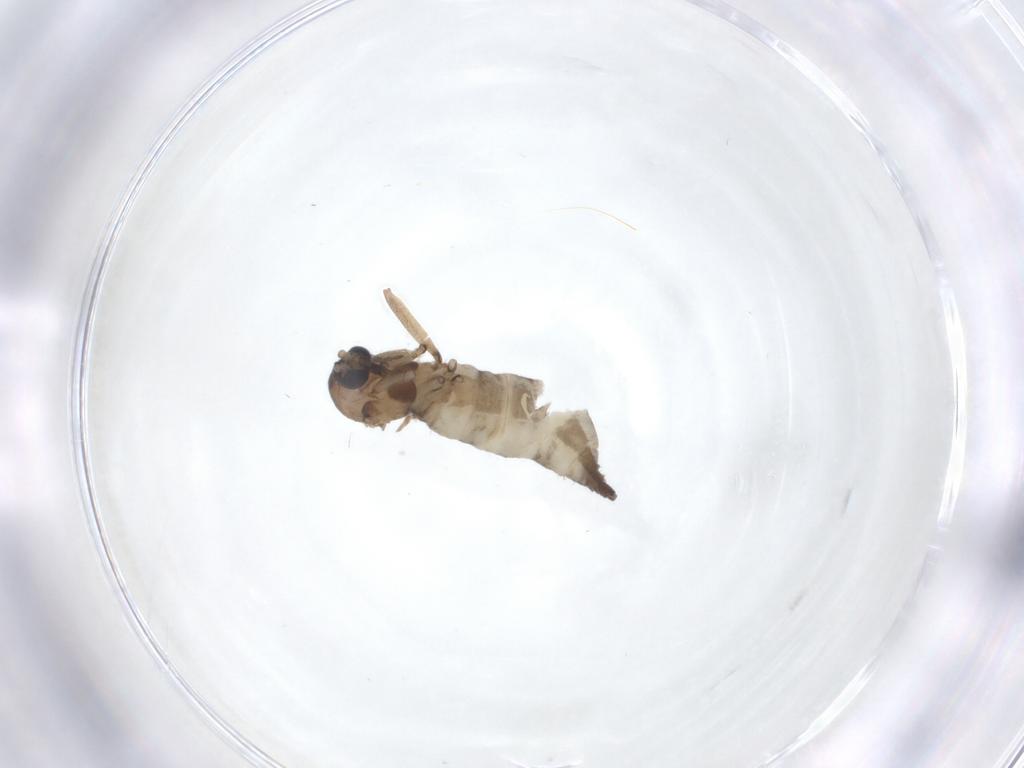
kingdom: Animalia
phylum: Arthropoda
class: Insecta
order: Diptera
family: Sciaridae
